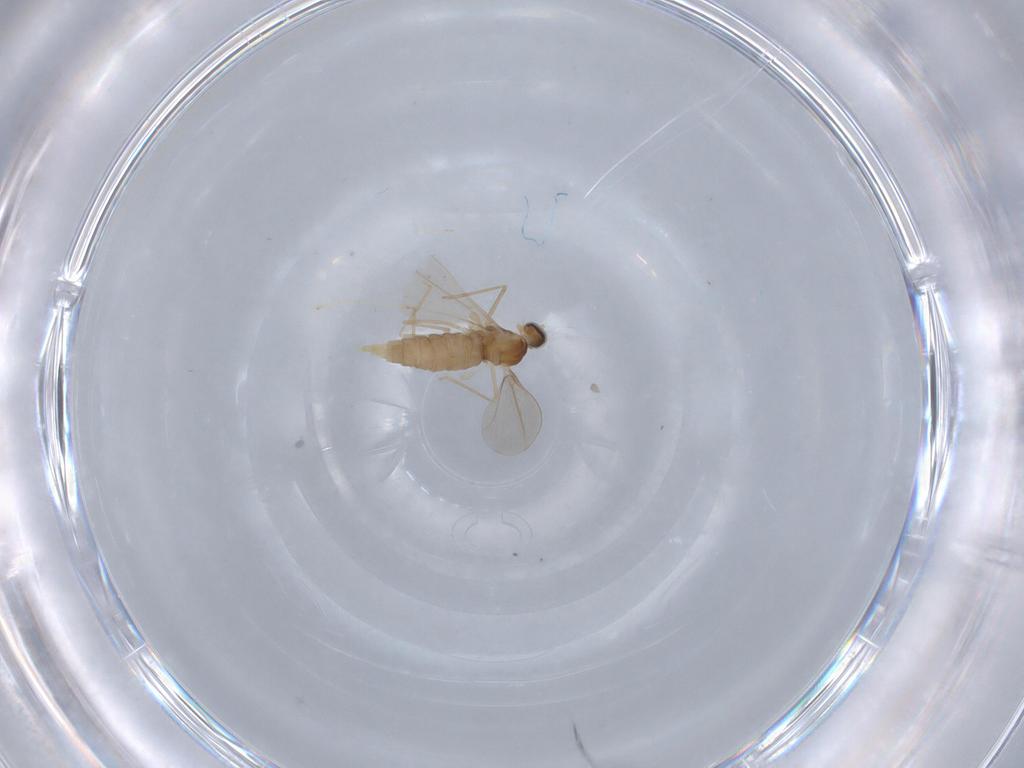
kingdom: Animalia
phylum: Arthropoda
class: Insecta
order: Diptera
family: Cecidomyiidae
